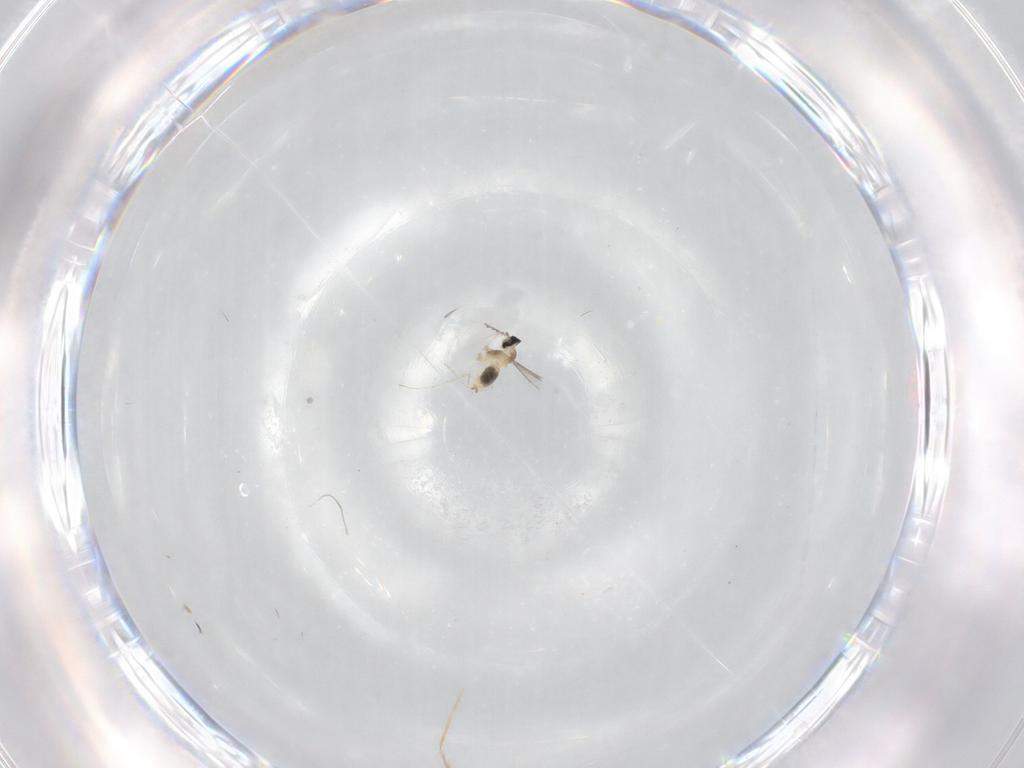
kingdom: Animalia
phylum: Arthropoda
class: Insecta
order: Diptera
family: Cecidomyiidae
